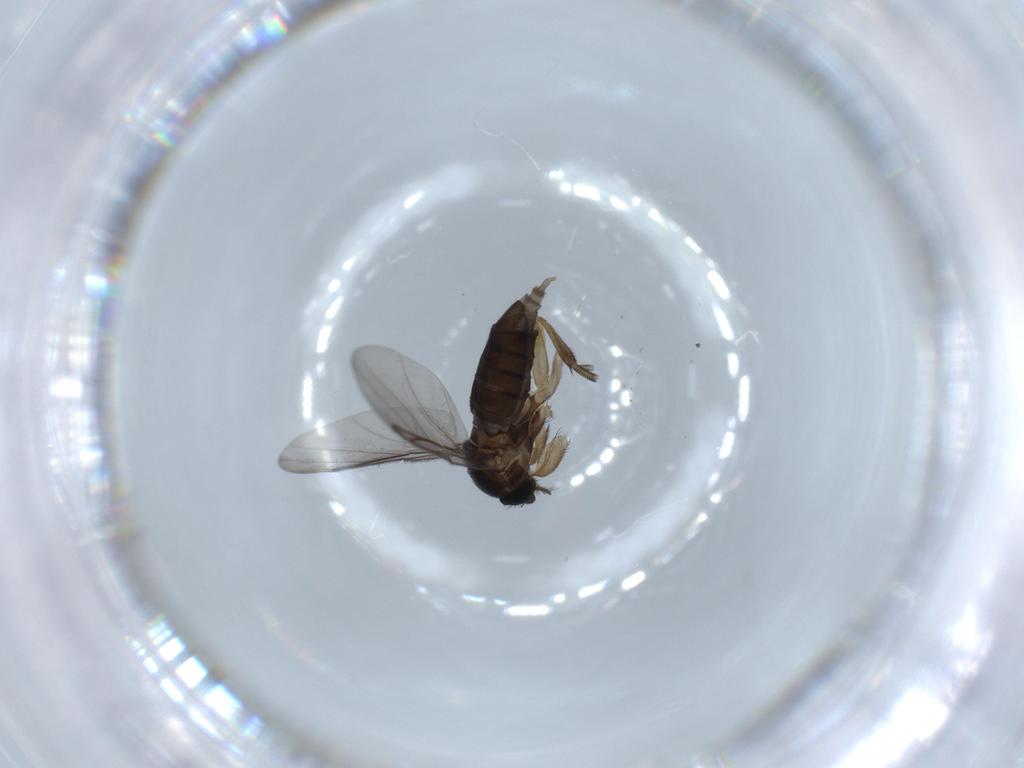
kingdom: Animalia
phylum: Arthropoda
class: Insecta
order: Diptera
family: Phoridae
